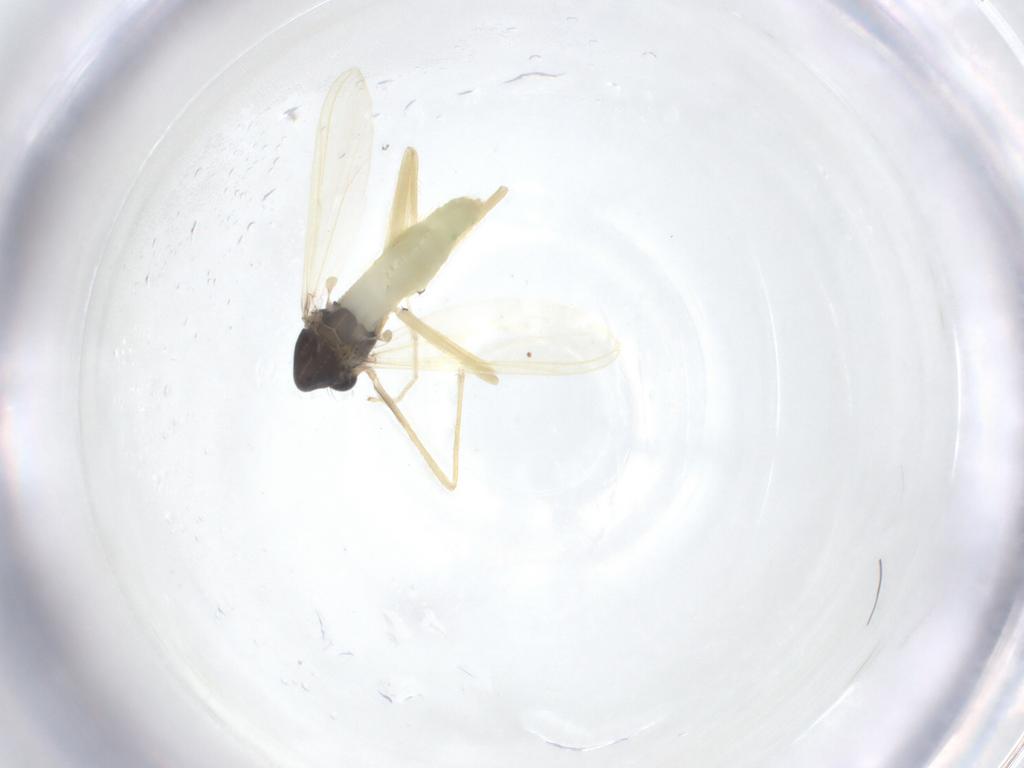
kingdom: Animalia
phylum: Arthropoda
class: Insecta
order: Diptera
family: Chironomidae
